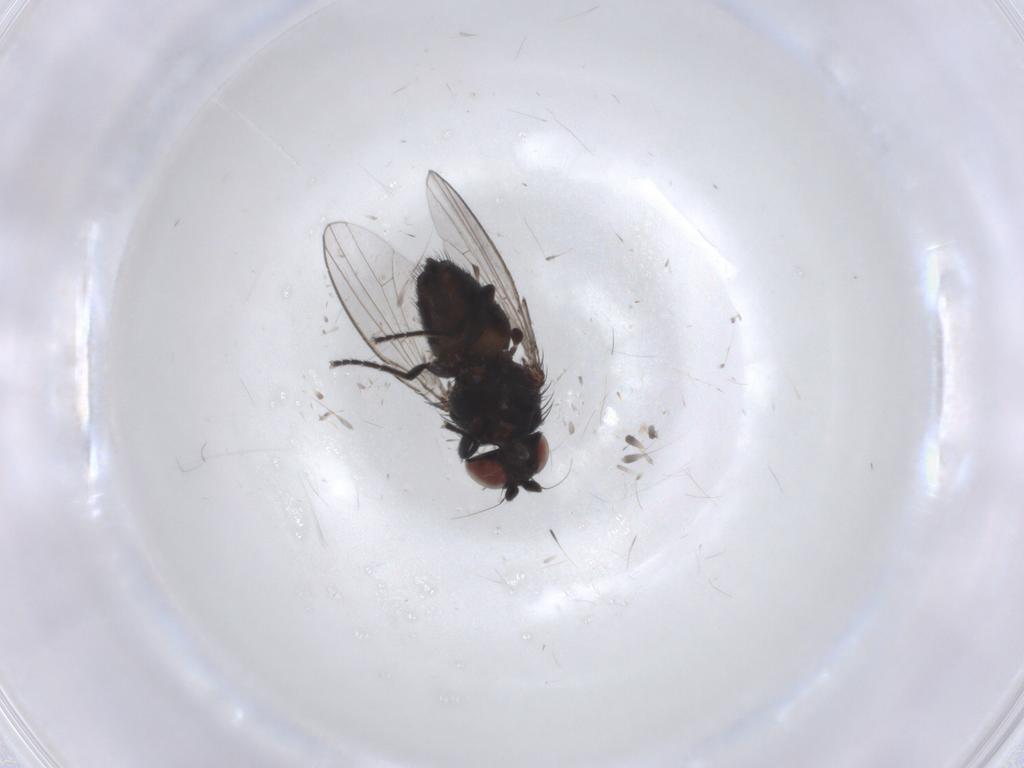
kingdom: Animalia
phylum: Arthropoda
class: Insecta
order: Diptera
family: Milichiidae
